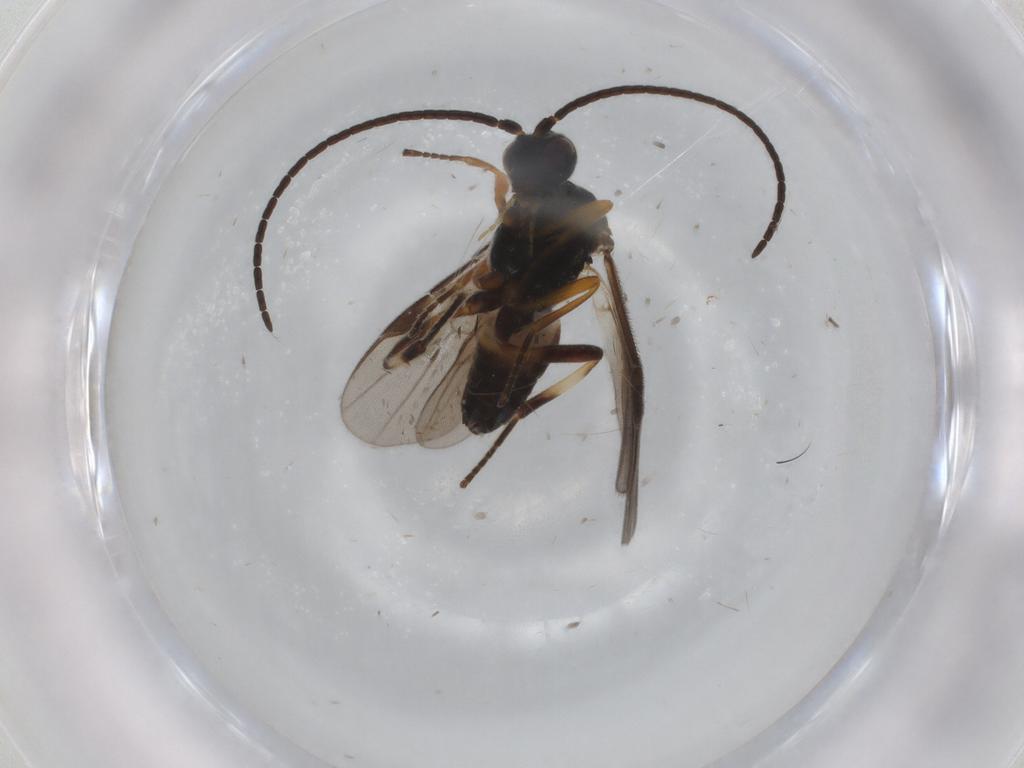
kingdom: Animalia
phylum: Arthropoda
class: Insecta
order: Hymenoptera
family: Braconidae
